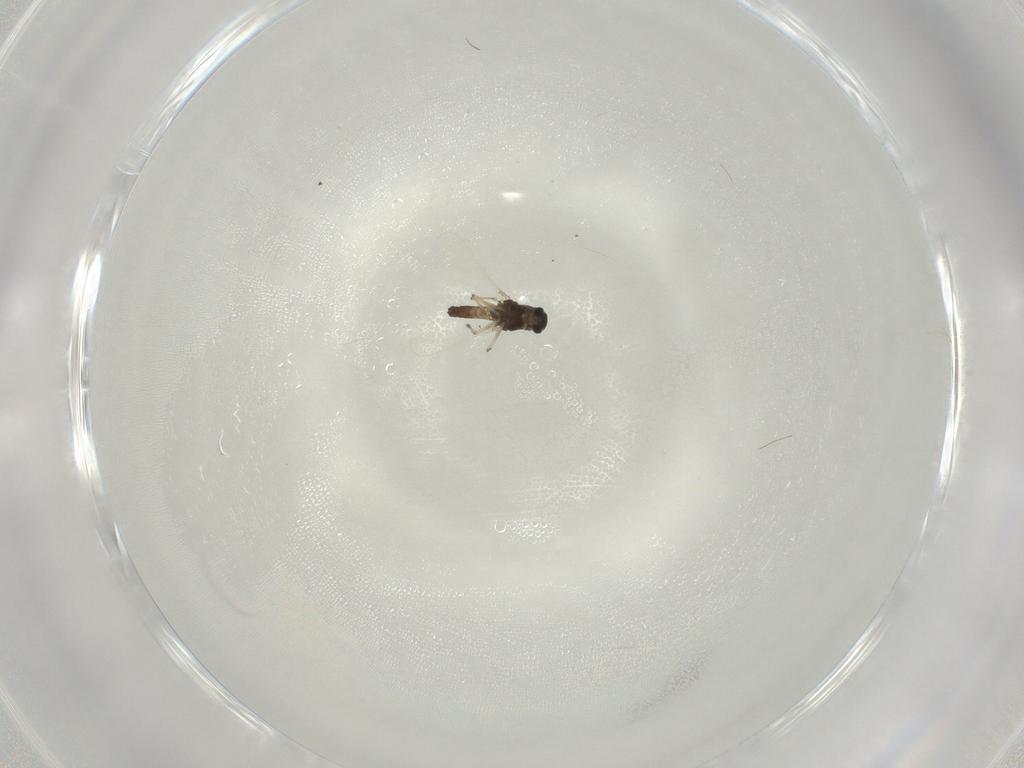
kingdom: Animalia
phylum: Arthropoda
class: Insecta
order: Diptera
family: Chironomidae
